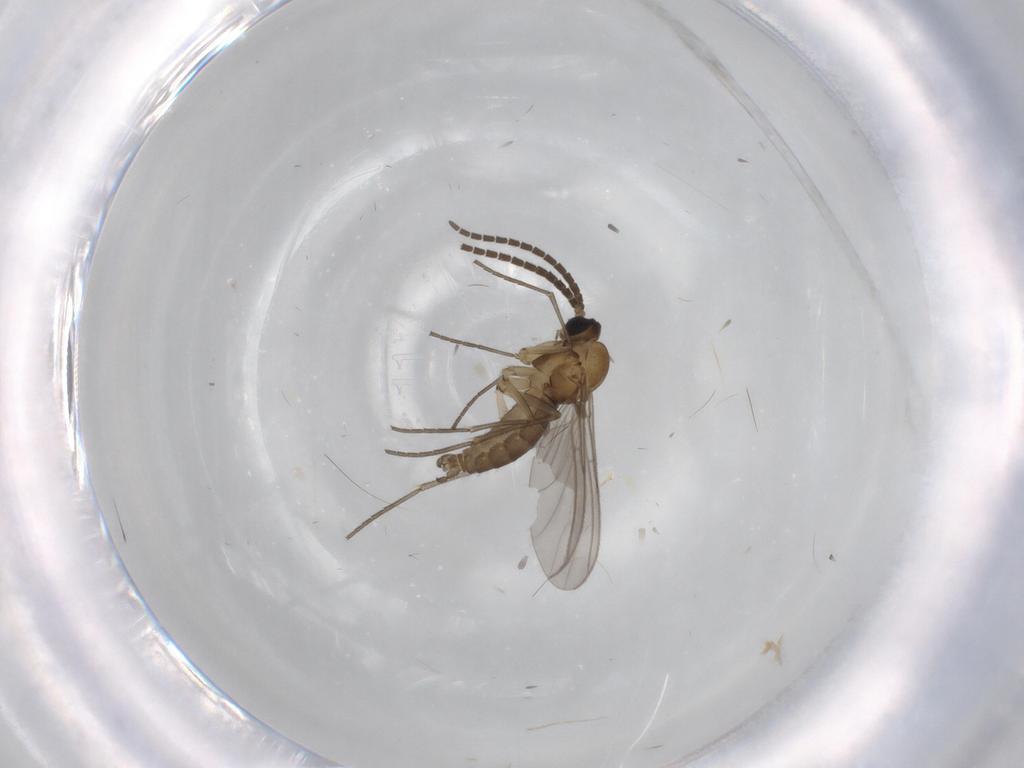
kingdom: Animalia
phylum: Arthropoda
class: Insecta
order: Diptera
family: Sciaridae
